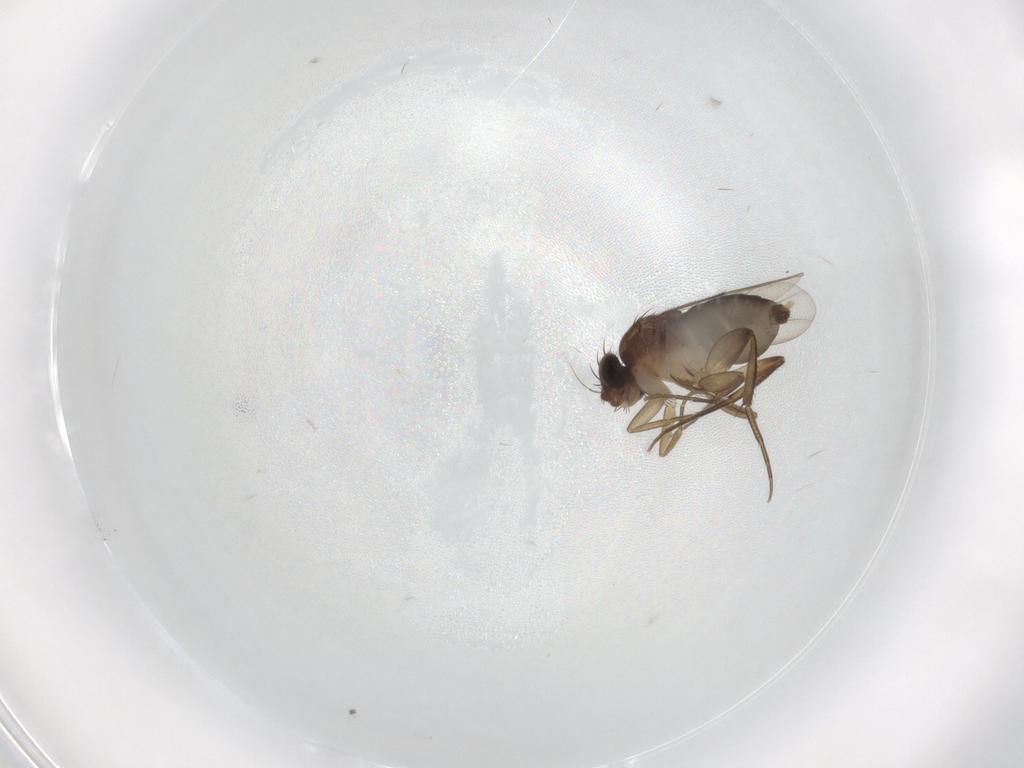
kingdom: Animalia
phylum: Arthropoda
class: Insecta
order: Diptera
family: Phoridae
